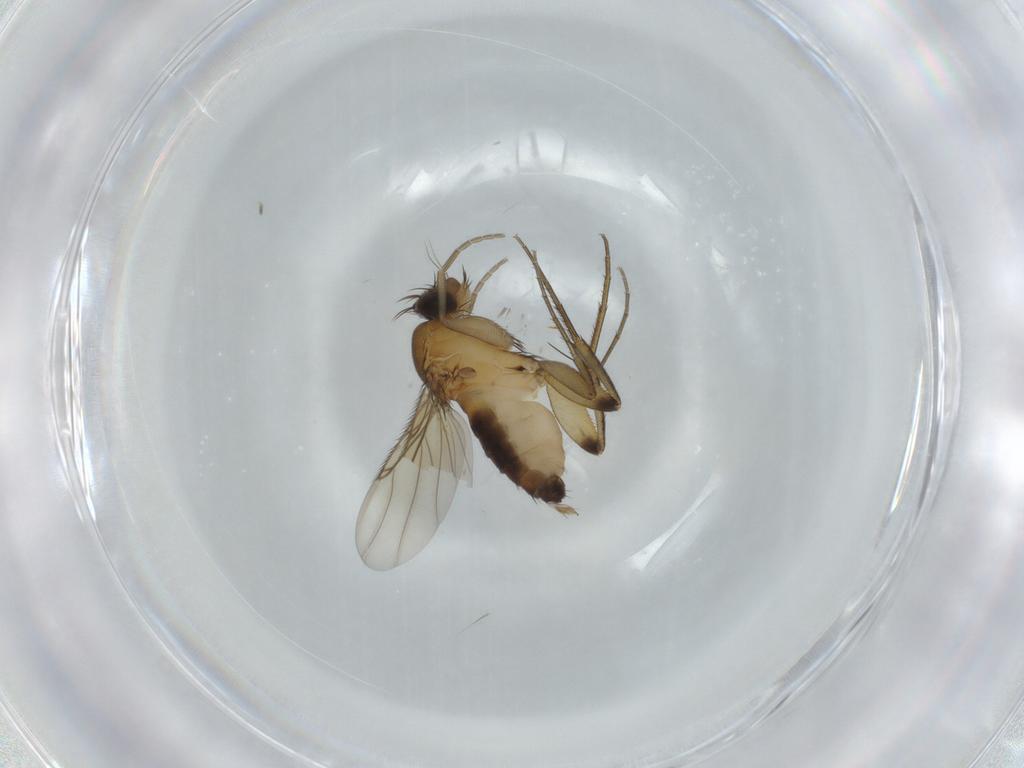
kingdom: Animalia
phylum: Arthropoda
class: Insecta
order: Diptera
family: Phoridae
